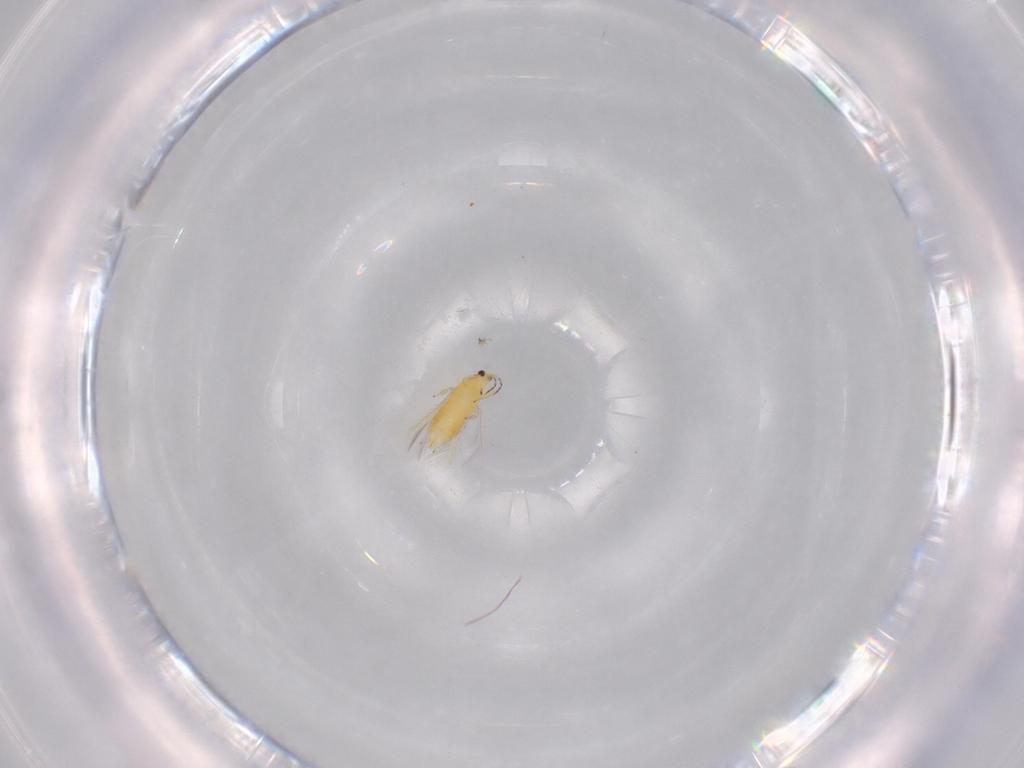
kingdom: Animalia
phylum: Arthropoda
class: Insecta
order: Thysanoptera
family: Thripidae
